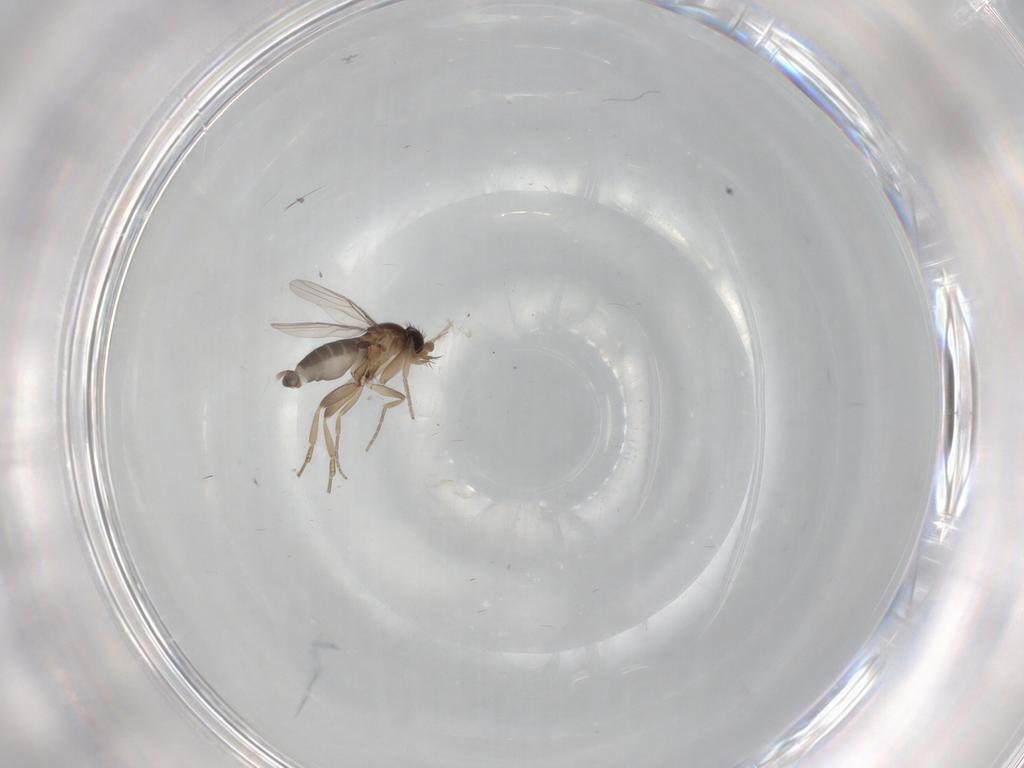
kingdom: Animalia
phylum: Arthropoda
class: Insecta
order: Diptera
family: Phoridae
